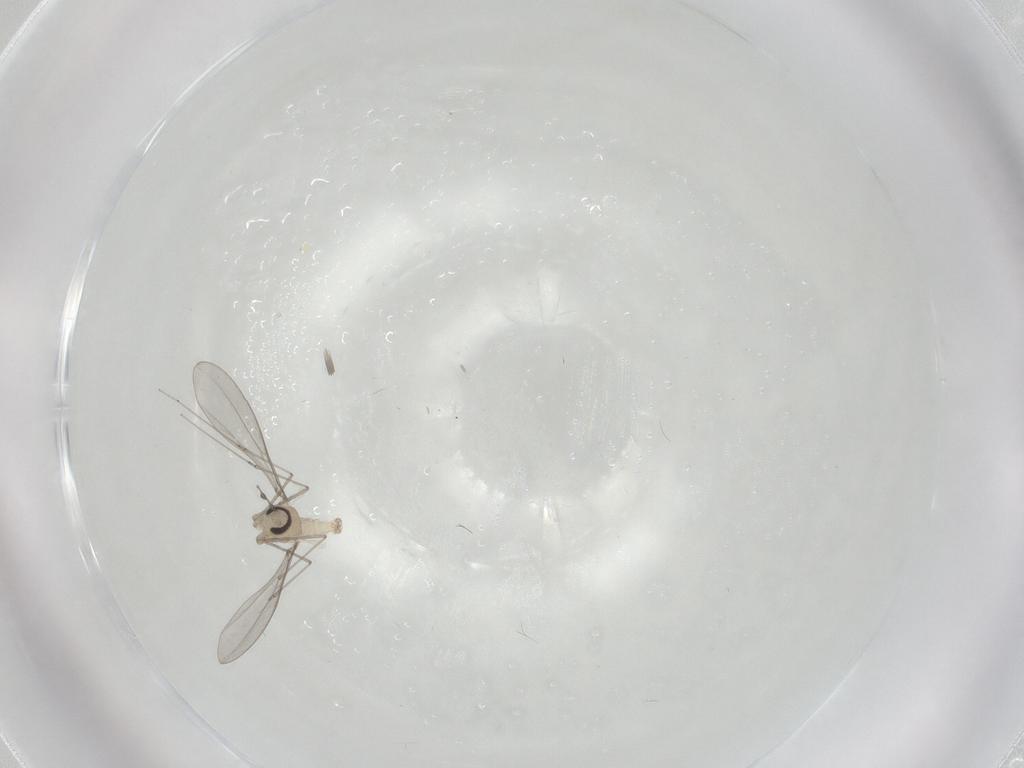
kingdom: Animalia
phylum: Arthropoda
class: Insecta
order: Diptera
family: Cecidomyiidae
